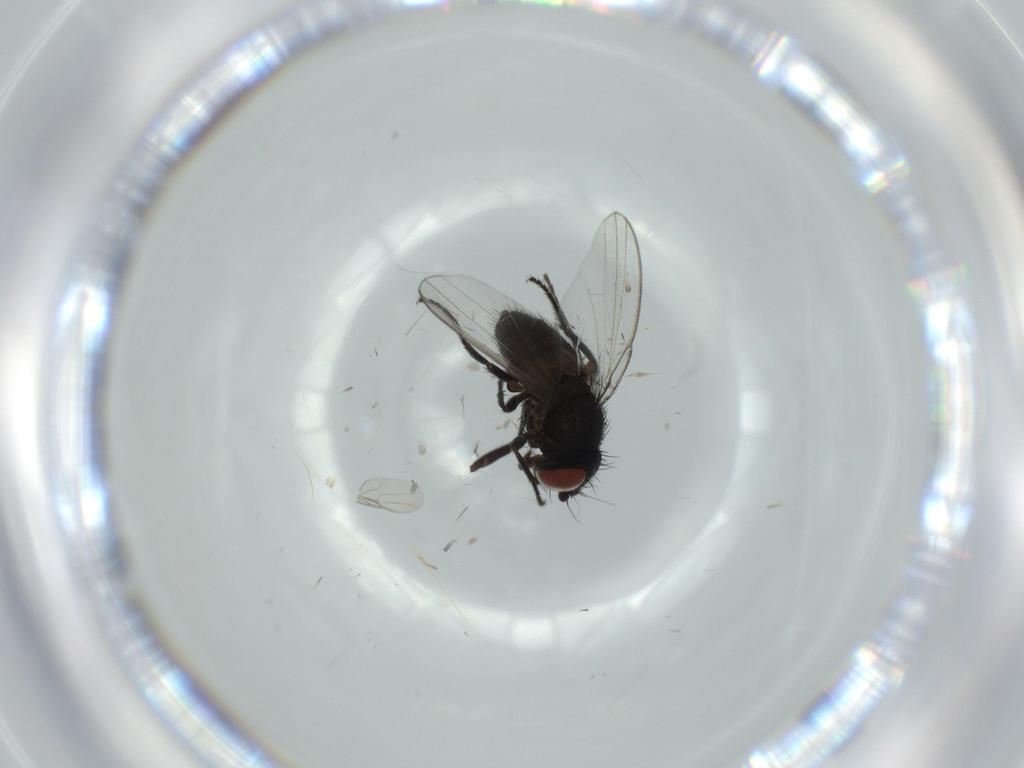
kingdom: Animalia
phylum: Arthropoda
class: Insecta
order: Diptera
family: Milichiidae
